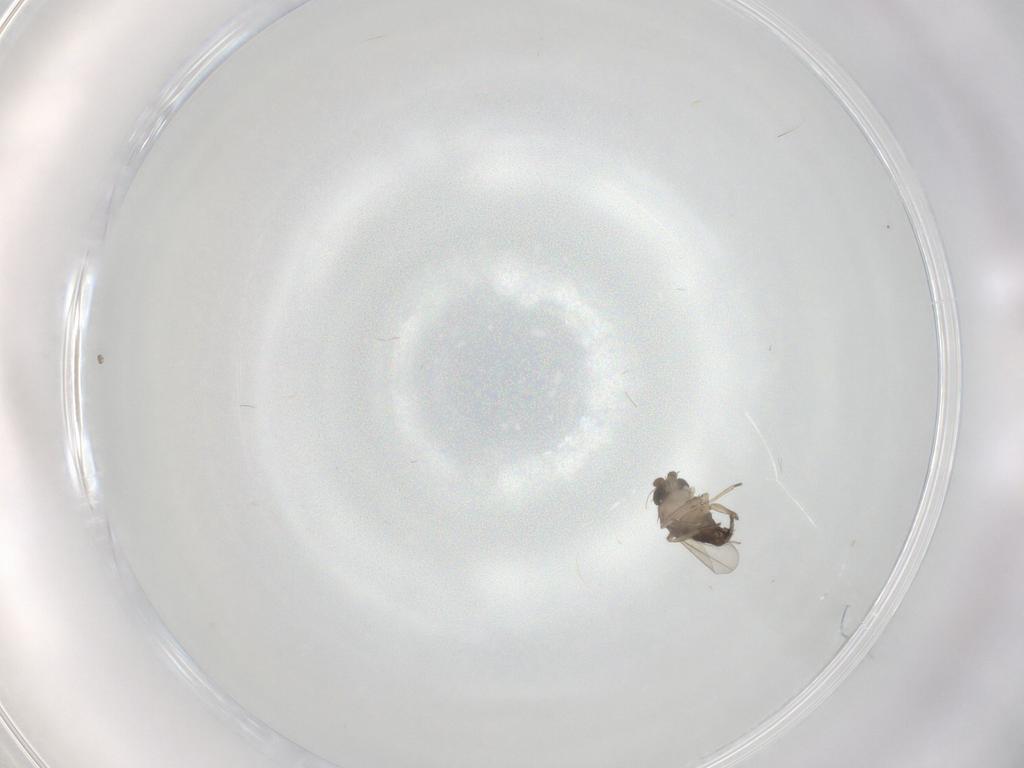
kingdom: Animalia
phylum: Arthropoda
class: Insecta
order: Diptera
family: Phoridae
